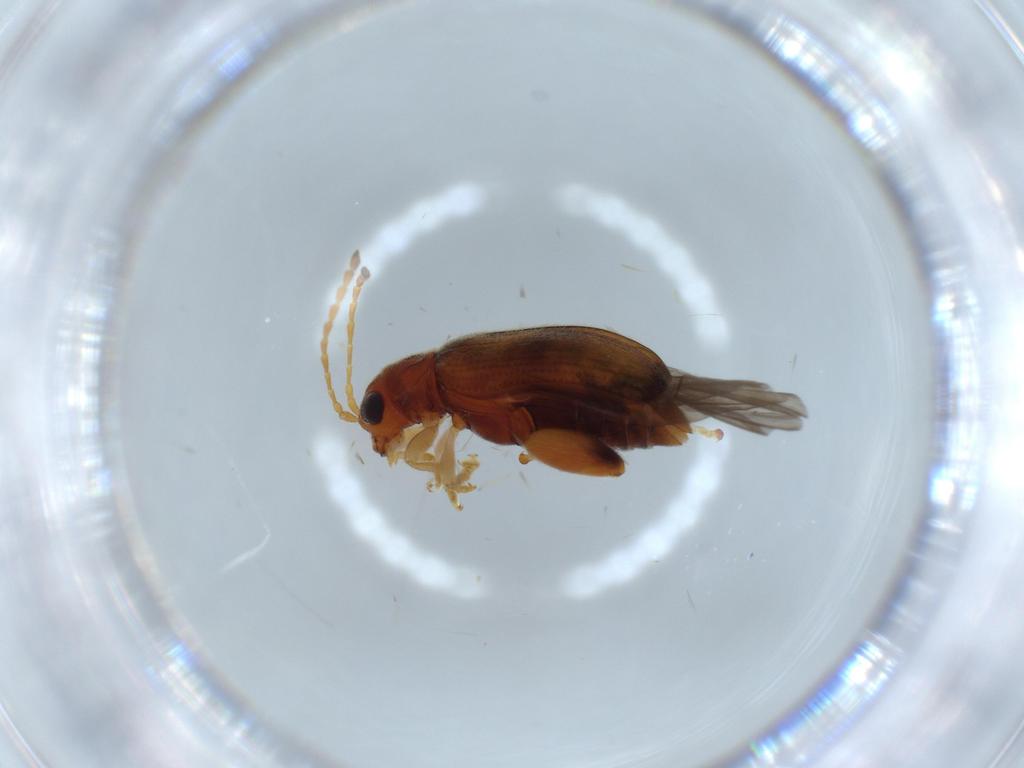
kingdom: Animalia
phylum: Arthropoda
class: Insecta
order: Coleoptera
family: Chrysomelidae
